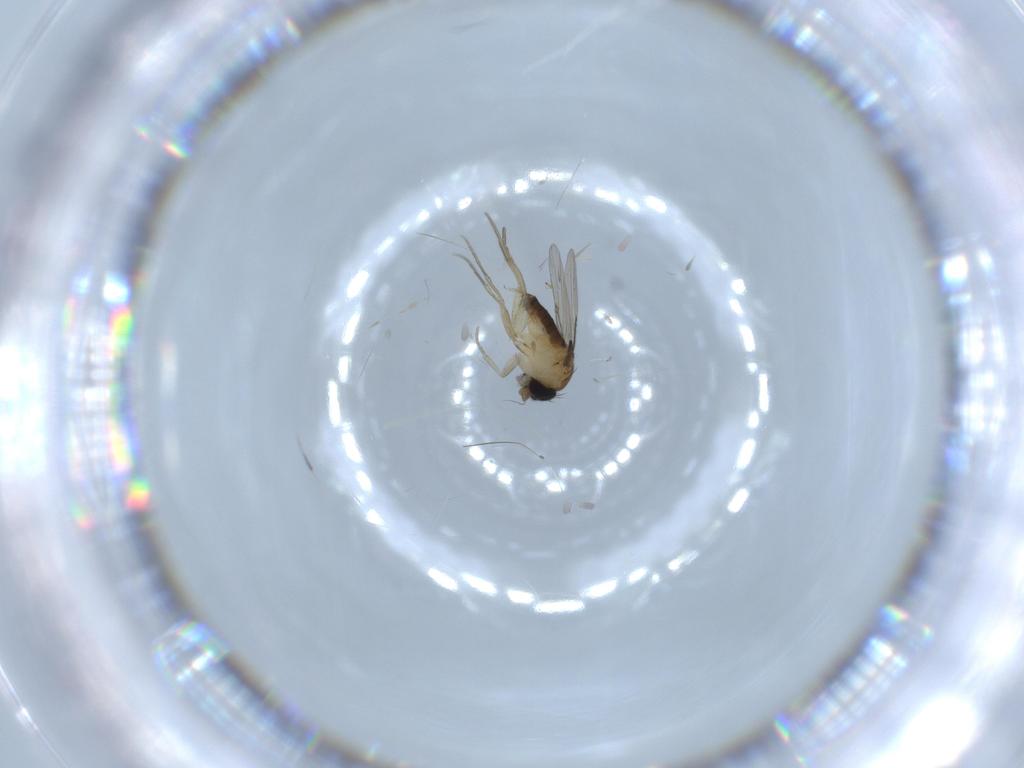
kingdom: Animalia
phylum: Arthropoda
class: Insecta
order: Diptera
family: Phoridae
